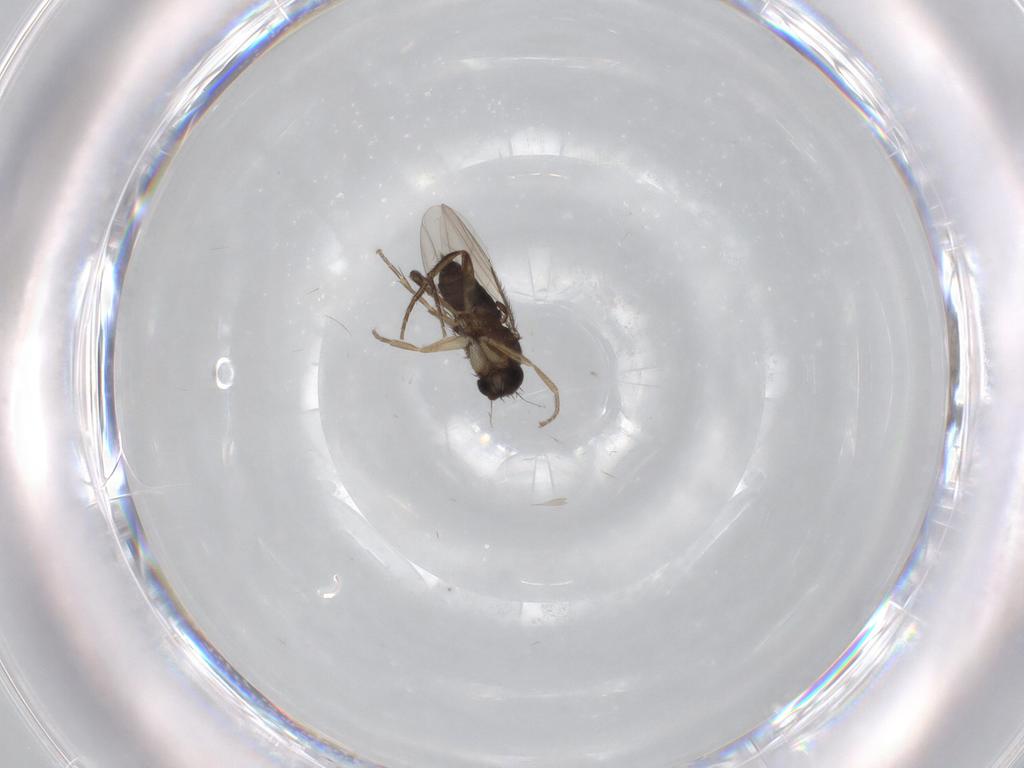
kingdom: Animalia
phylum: Arthropoda
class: Insecta
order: Diptera
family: Phoridae
